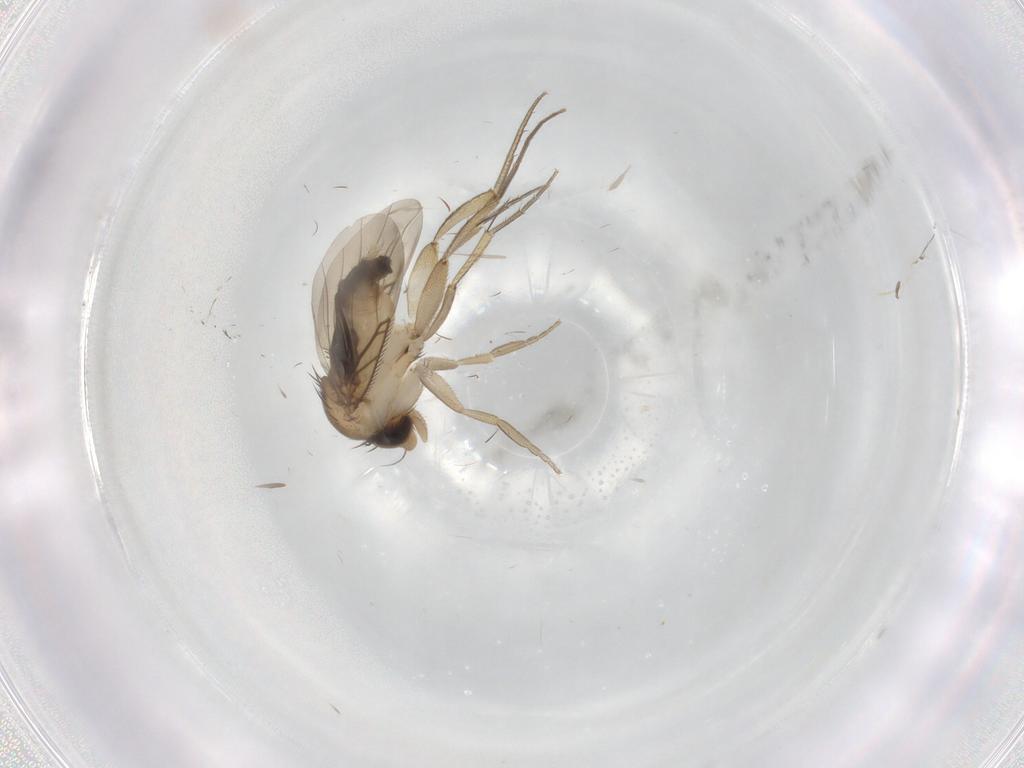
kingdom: Animalia
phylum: Arthropoda
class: Insecta
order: Diptera
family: Phoridae
